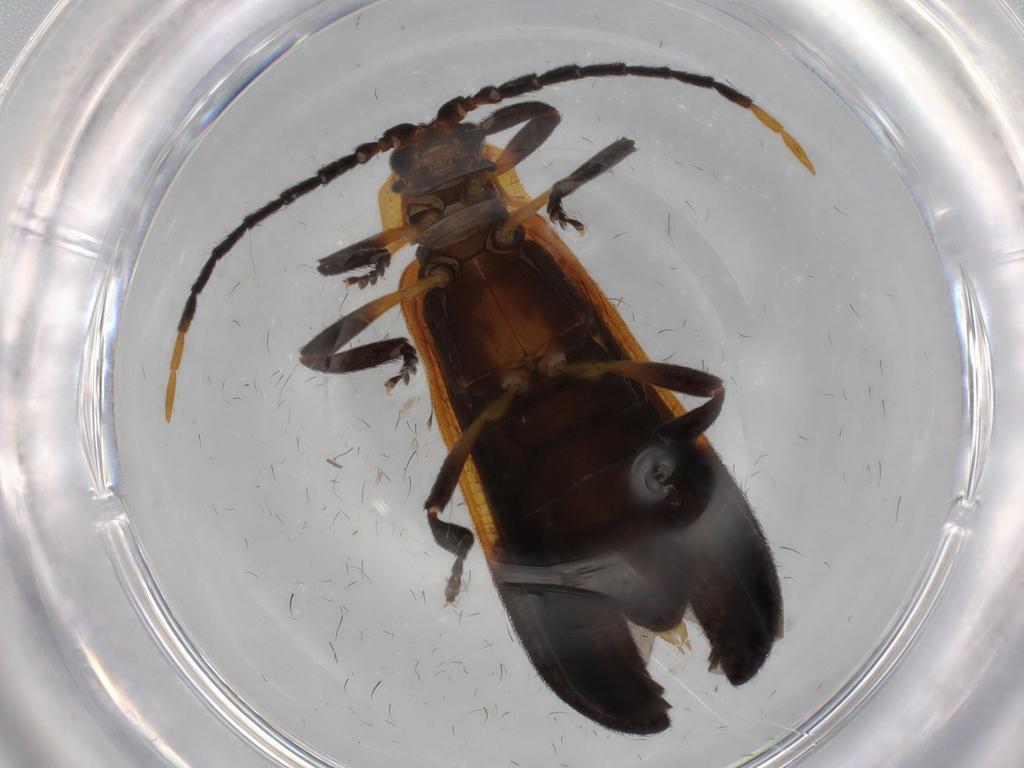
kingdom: Animalia
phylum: Arthropoda
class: Insecta
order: Coleoptera
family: Lycidae
